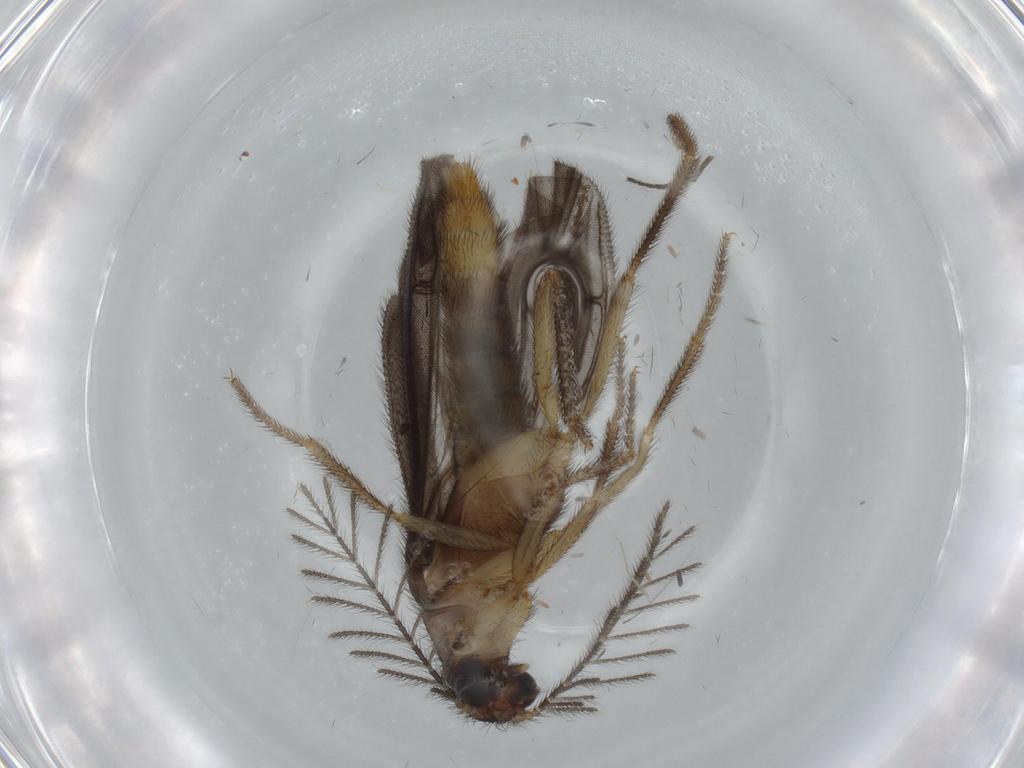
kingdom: Animalia
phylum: Arthropoda
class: Insecta
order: Coleoptera
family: Phengodidae
